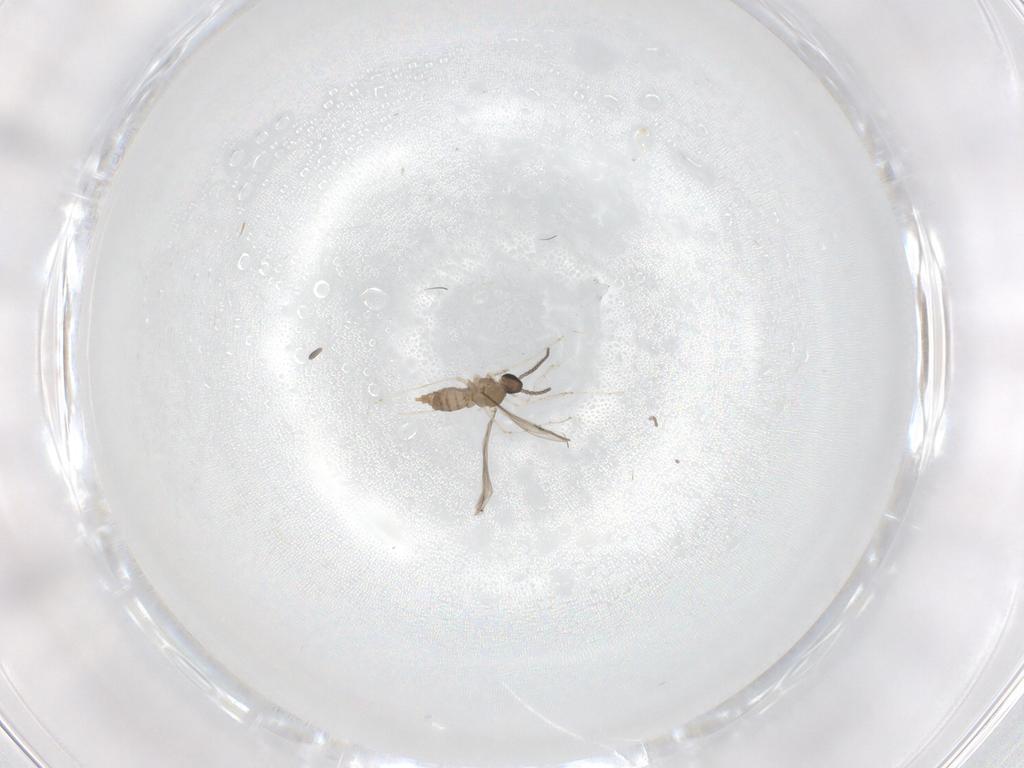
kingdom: Animalia
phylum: Arthropoda
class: Insecta
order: Diptera
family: Cecidomyiidae
